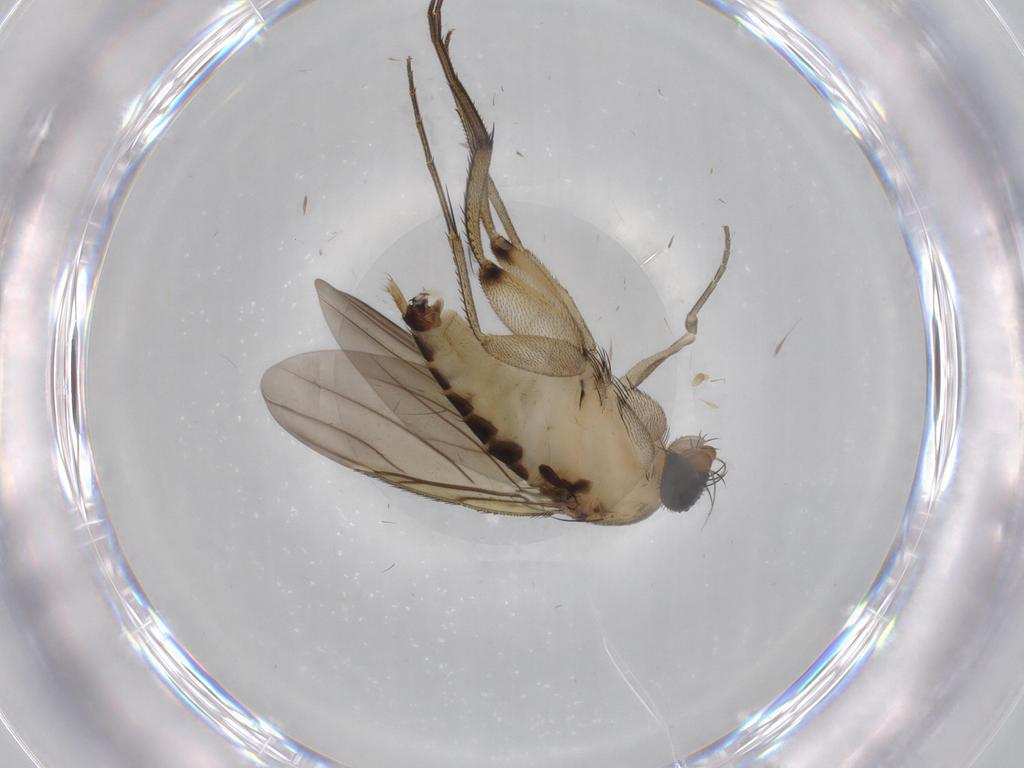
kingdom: Animalia
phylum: Arthropoda
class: Insecta
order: Diptera
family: Phoridae
